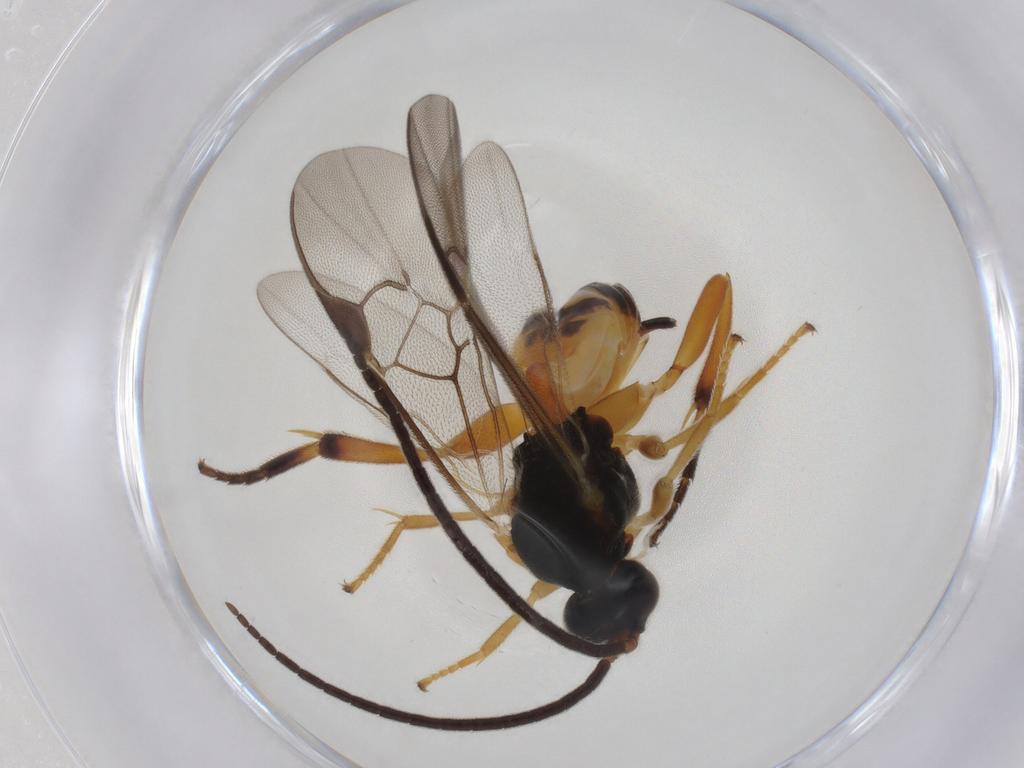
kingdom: Animalia
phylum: Arthropoda
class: Insecta
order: Hymenoptera
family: Braconidae
